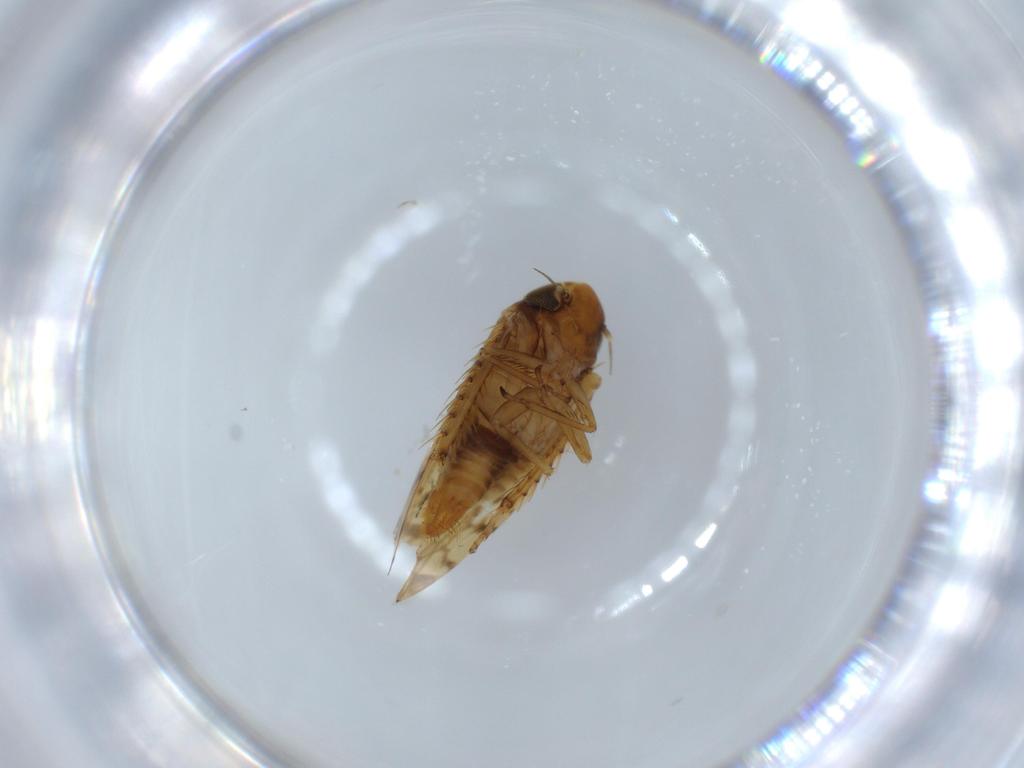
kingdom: Animalia
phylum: Arthropoda
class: Insecta
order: Hemiptera
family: Cicadellidae
